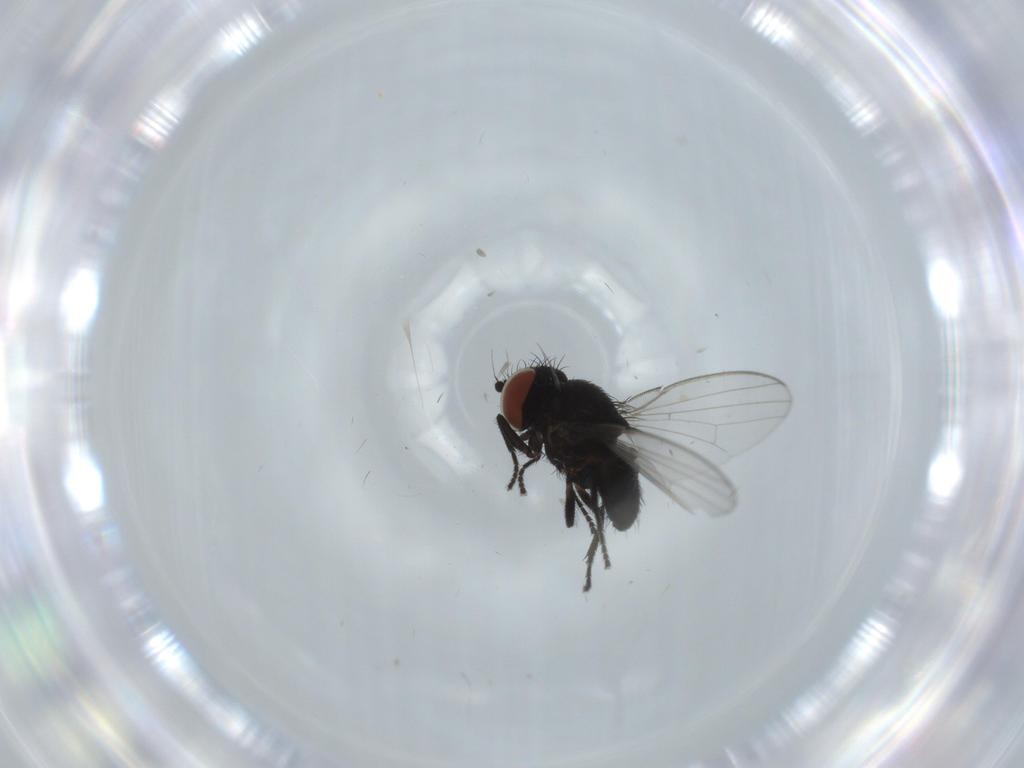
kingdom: Animalia
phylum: Arthropoda
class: Insecta
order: Diptera
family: Milichiidae
